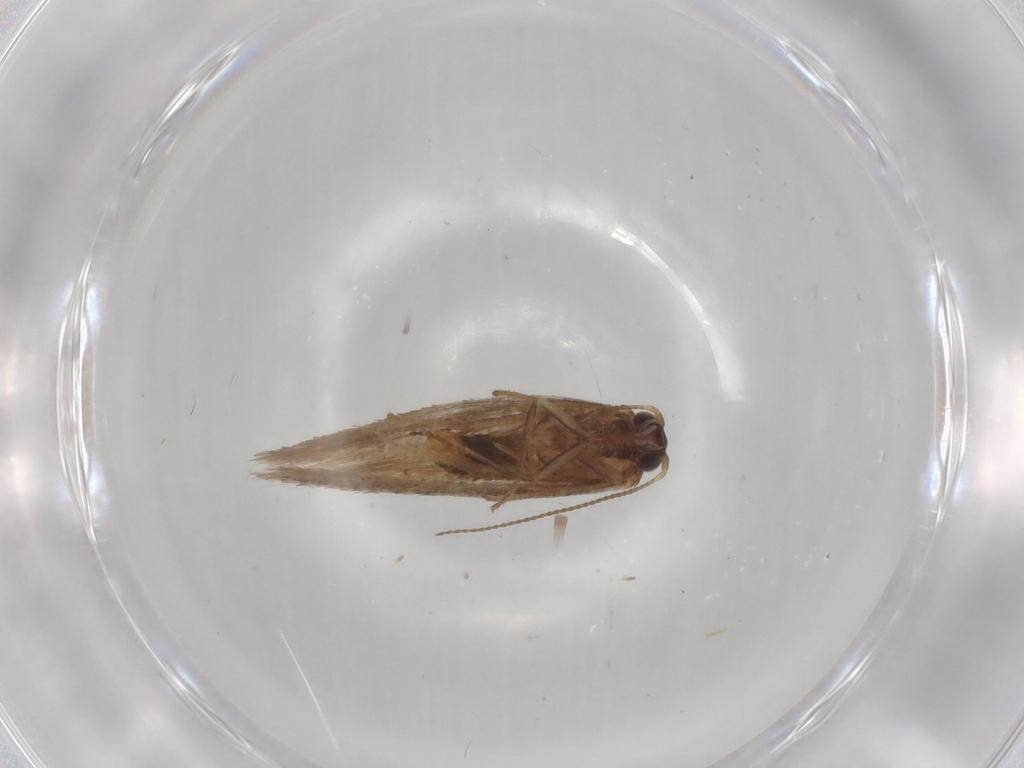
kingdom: Animalia
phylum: Arthropoda
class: Insecta
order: Lepidoptera
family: Nepticulidae
